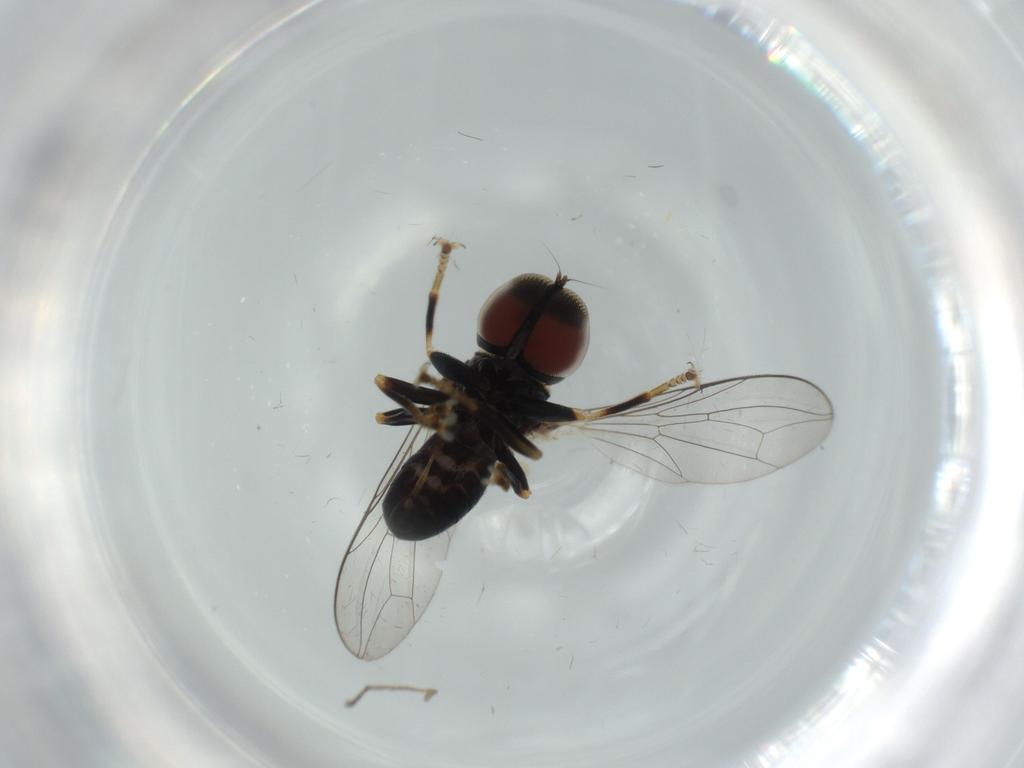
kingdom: Animalia
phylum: Arthropoda
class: Insecta
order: Diptera
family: Pipunculidae
